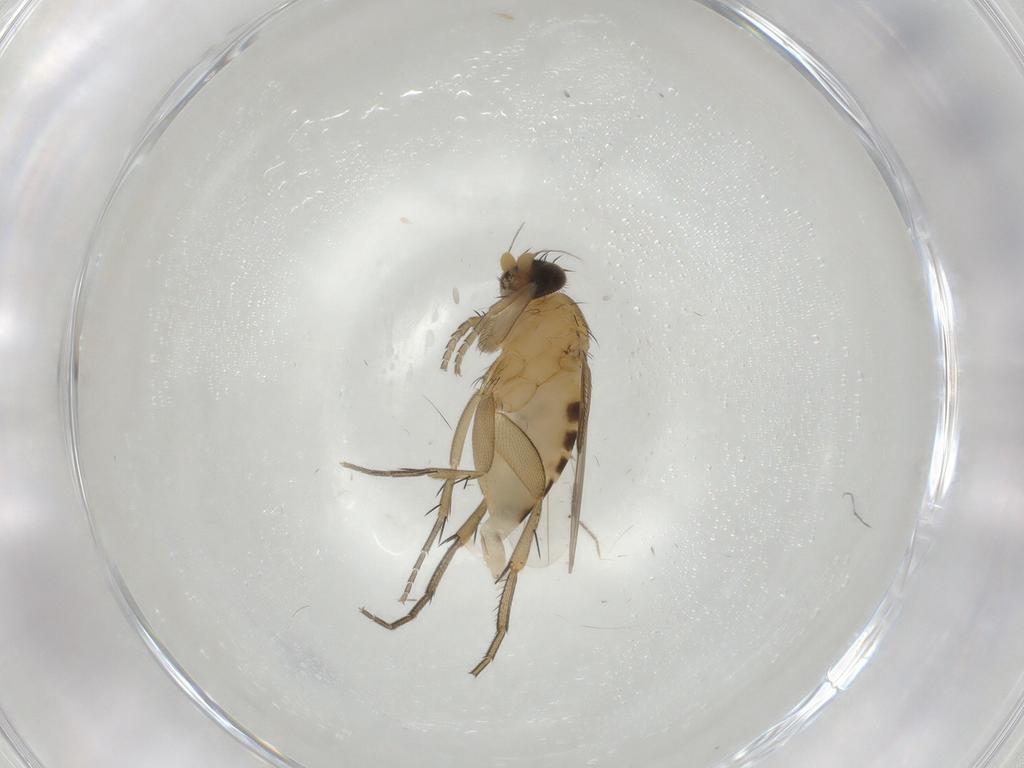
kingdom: Animalia
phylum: Arthropoda
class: Insecta
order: Diptera
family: Phoridae
